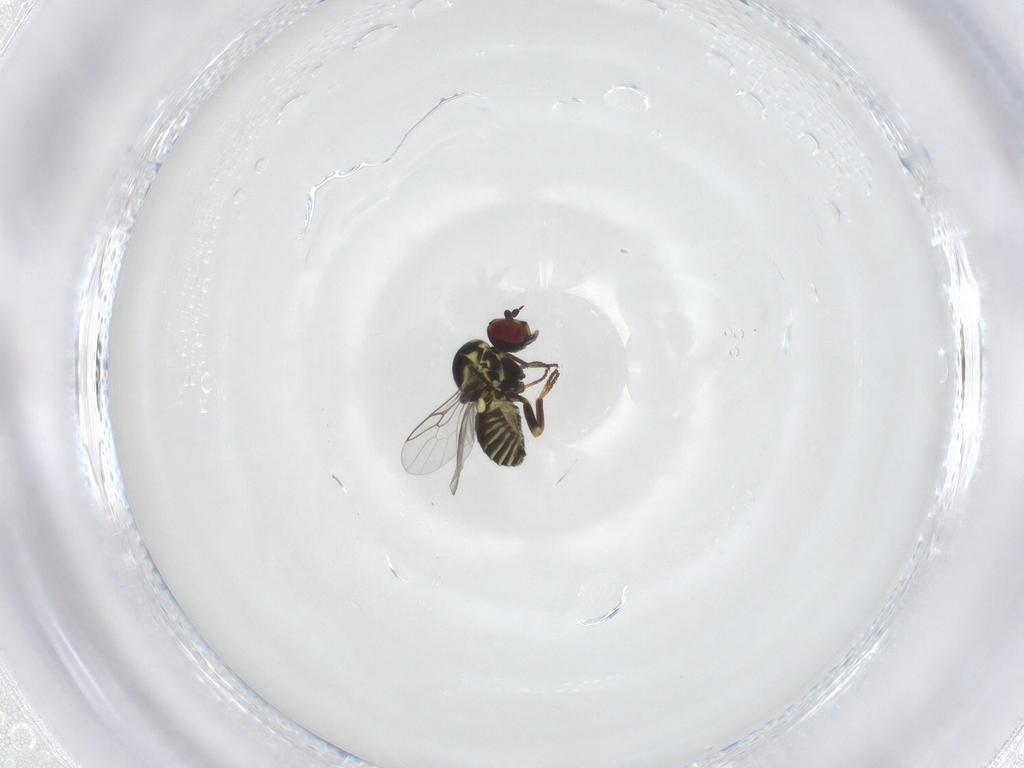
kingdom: Animalia
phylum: Arthropoda
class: Insecta
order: Diptera
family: Mythicomyiidae
